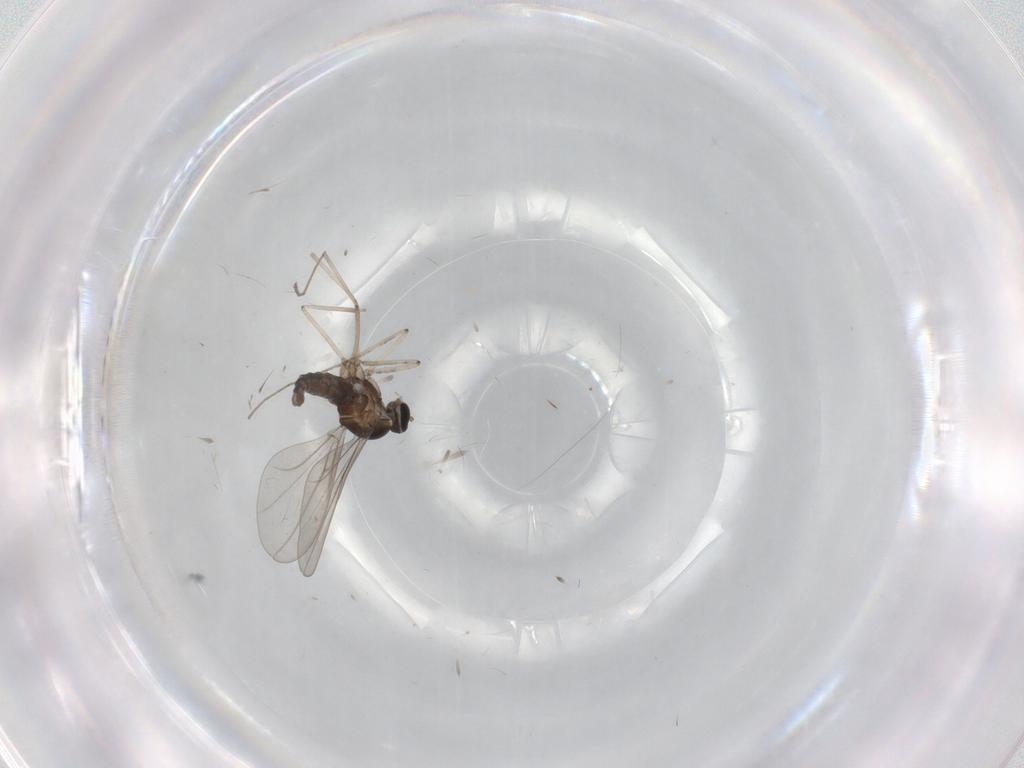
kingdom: Animalia
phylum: Arthropoda
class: Insecta
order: Diptera
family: Cecidomyiidae
